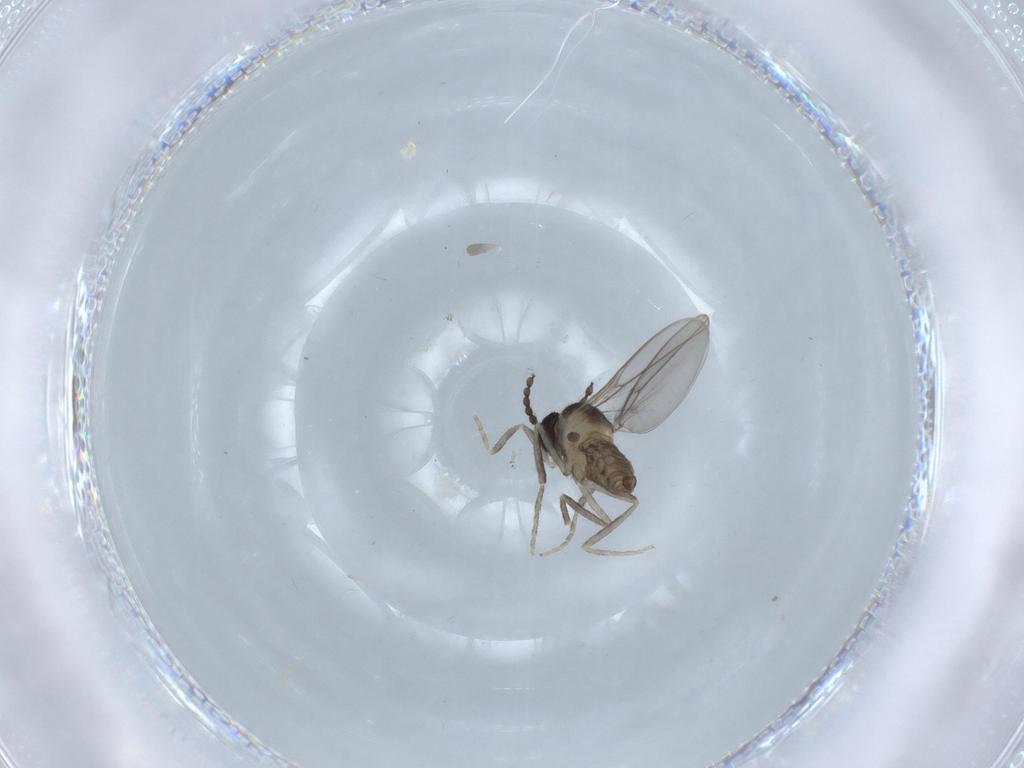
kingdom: Animalia
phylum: Arthropoda
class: Insecta
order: Diptera
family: Cecidomyiidae
